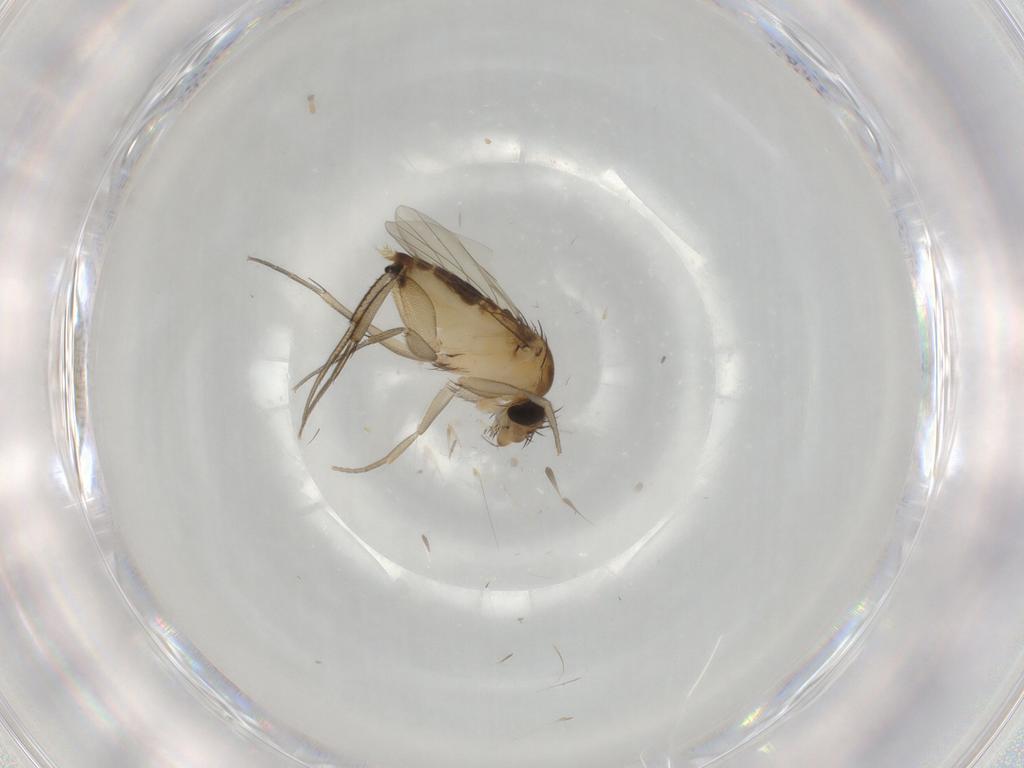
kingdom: Animalia
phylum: Arthropoda
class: Insecta
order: Diptera
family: Phoridae
